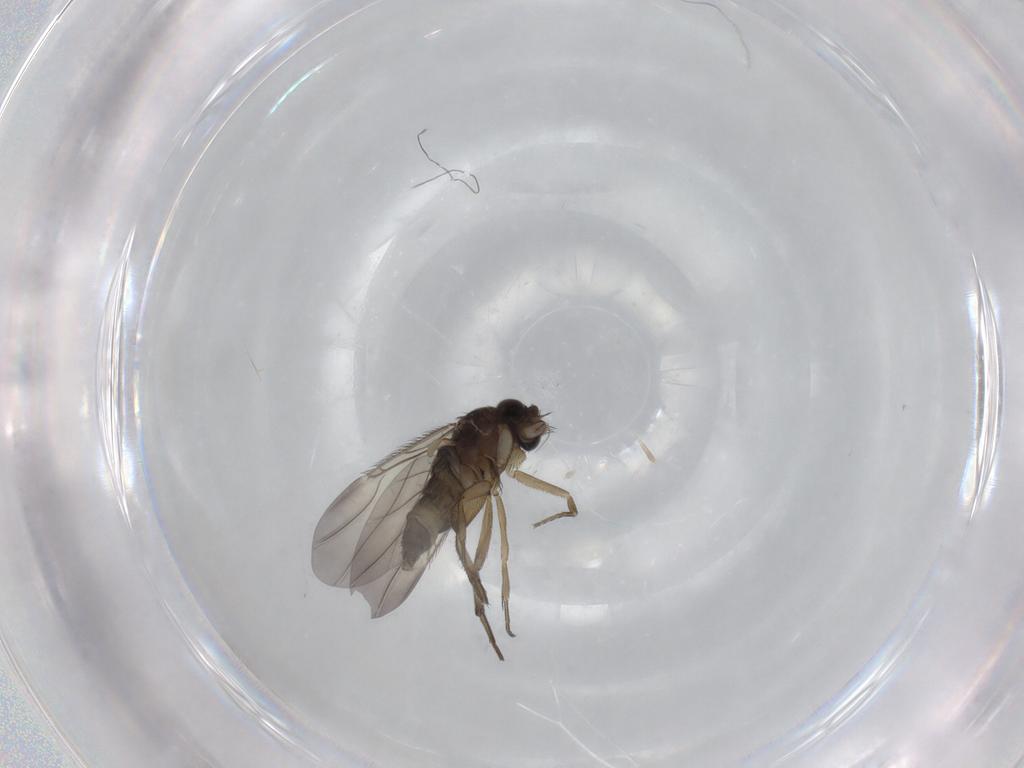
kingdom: Animalia
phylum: Arthropoda
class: Insecta
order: Diptera
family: Phoridae
